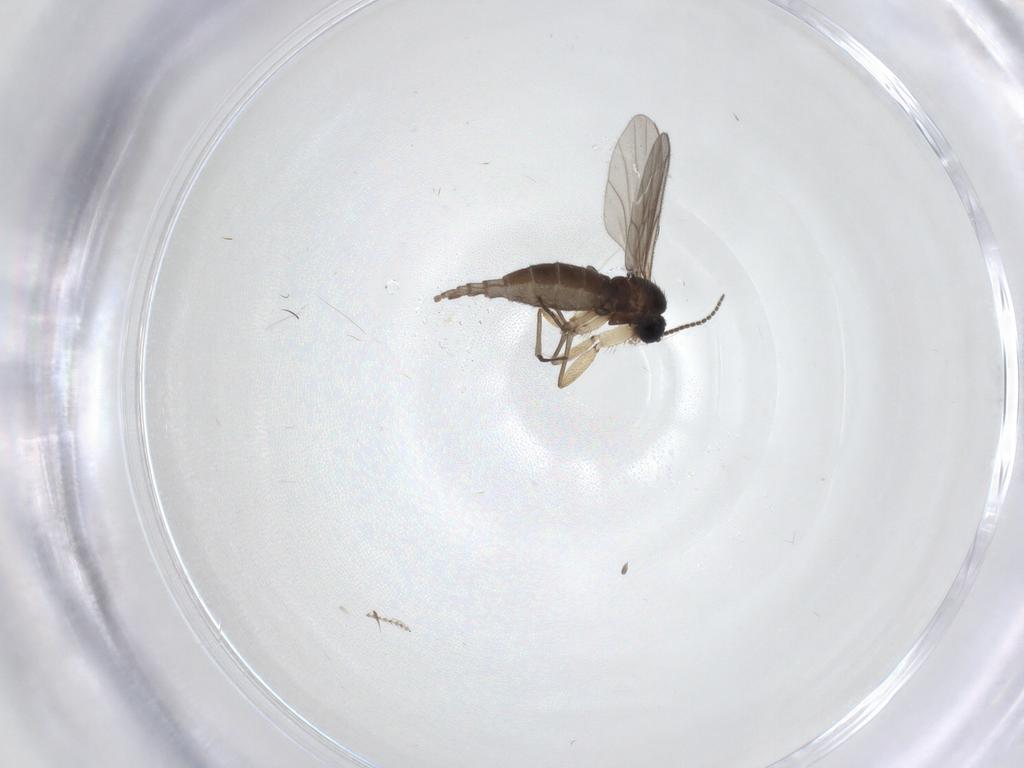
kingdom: Animalia
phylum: Arthropoda
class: Insecta
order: Diptera
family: Sciaridae
